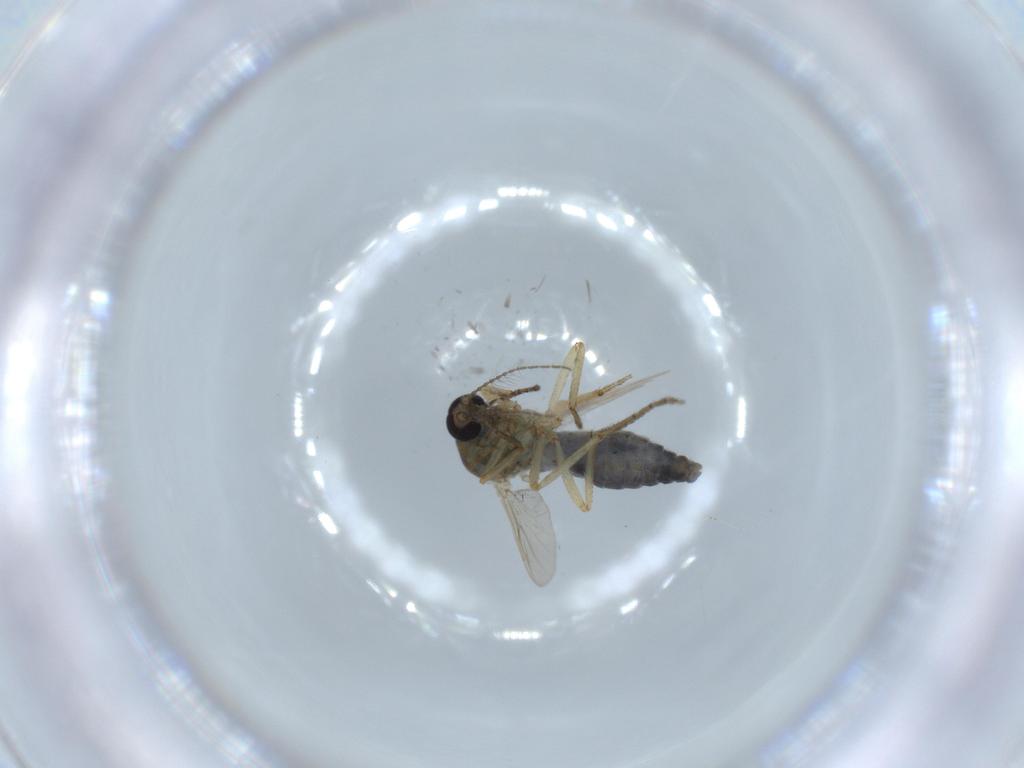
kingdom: Animalia
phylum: Arthropoda
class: Insecta
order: Diptera
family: Ceratopogonidae
